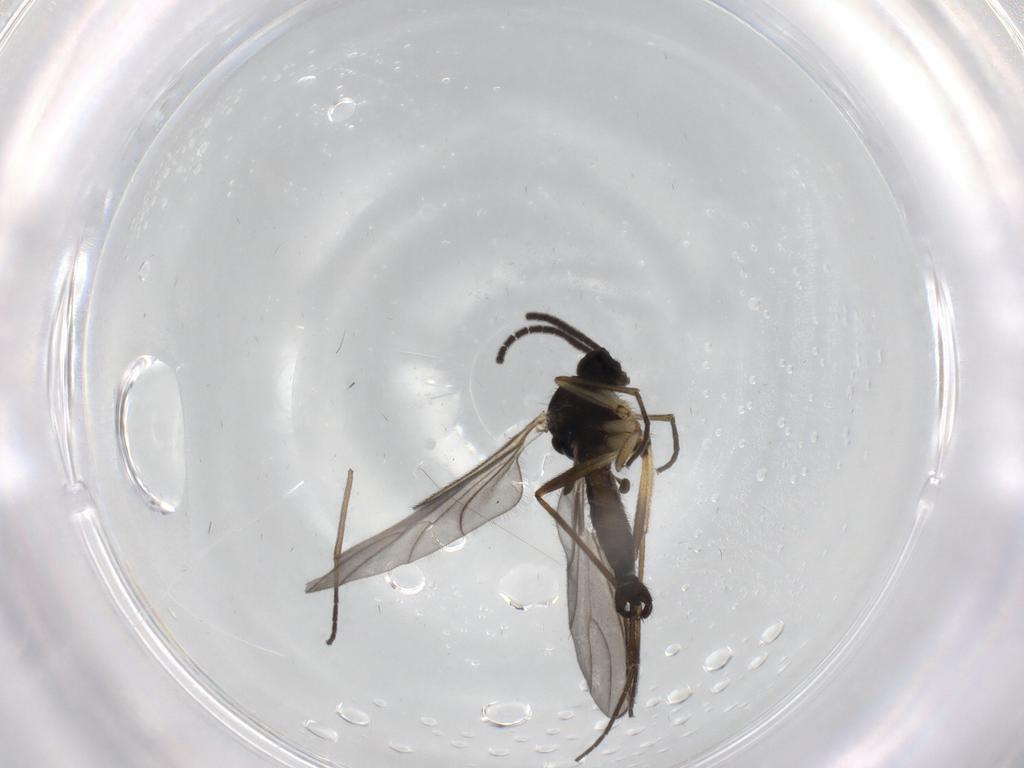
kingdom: Animalia
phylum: Arthropoda
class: Insecta
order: Diptera
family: Sciaridae
